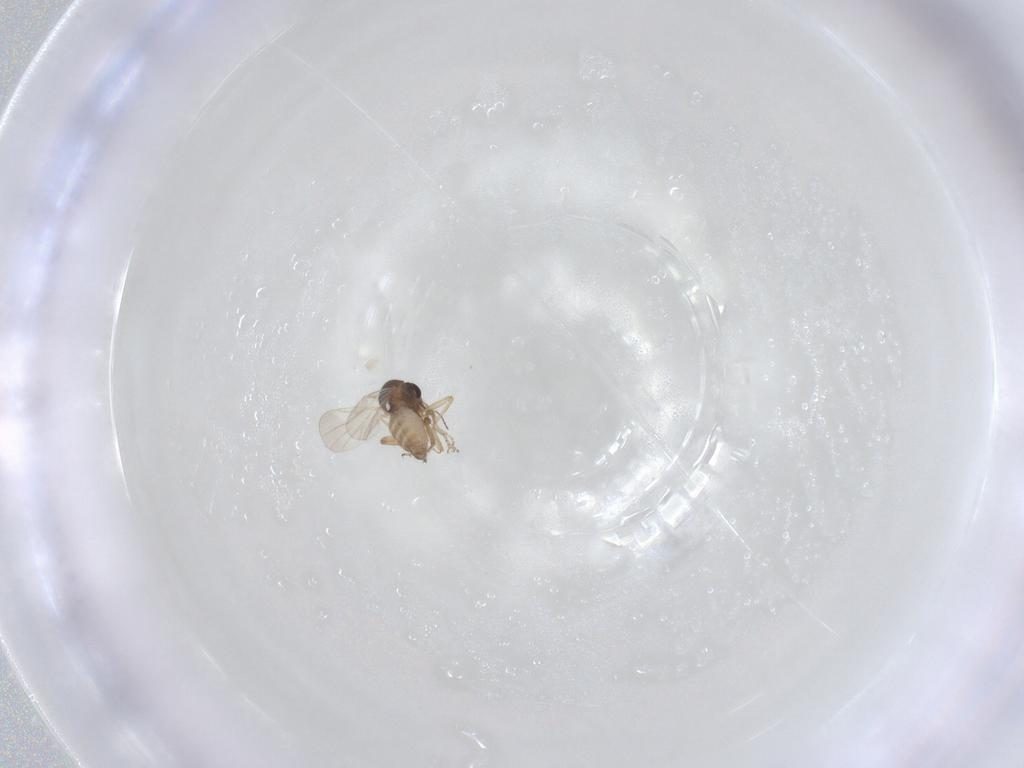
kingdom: Animalia
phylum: Arthropoda
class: Insecta
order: Diptera
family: Ceratopogonidae
